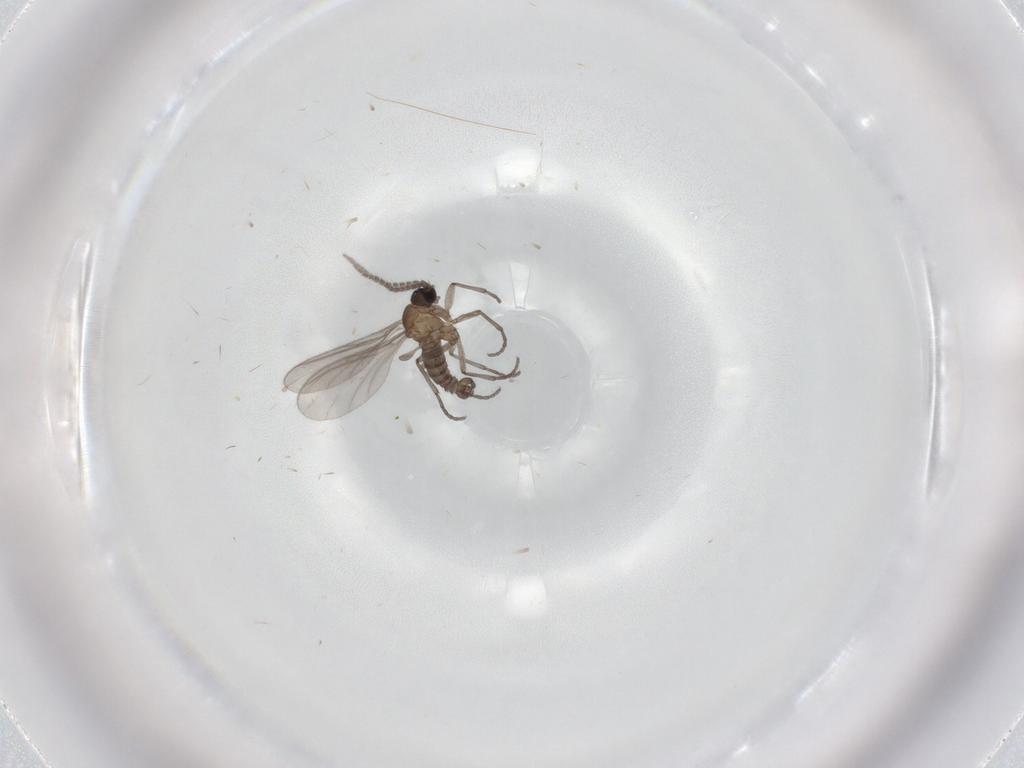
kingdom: Animalia
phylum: Arthropoda
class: Insecta
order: Diptera
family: Sciaridae
